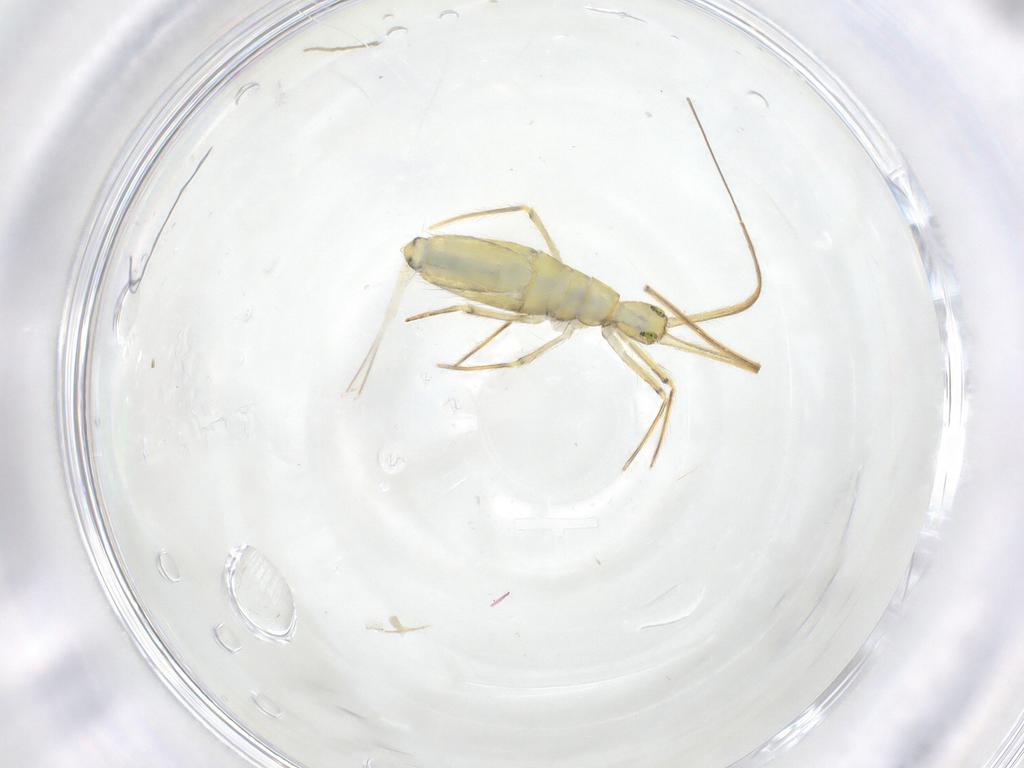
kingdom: Animalia
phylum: Arthropoda
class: Collembola
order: Entomobryomorpha
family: Entomobryidae
